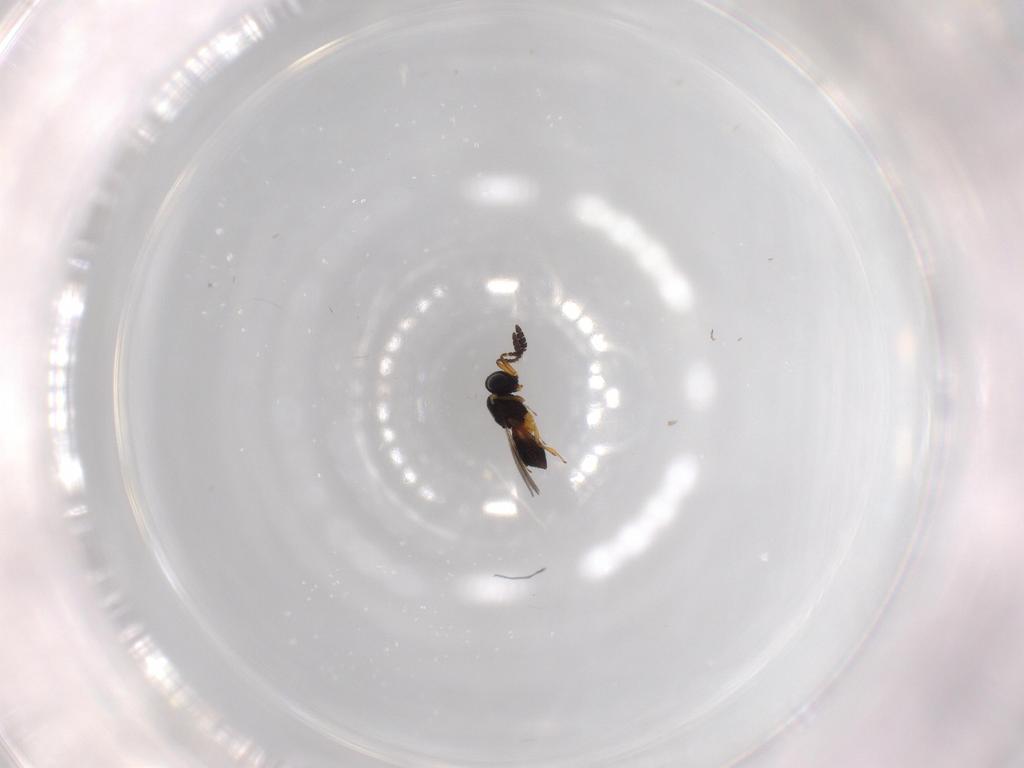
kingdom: Animalia
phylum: Arthropoda
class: Insecta
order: Hymenoptera
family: Scelionidae
